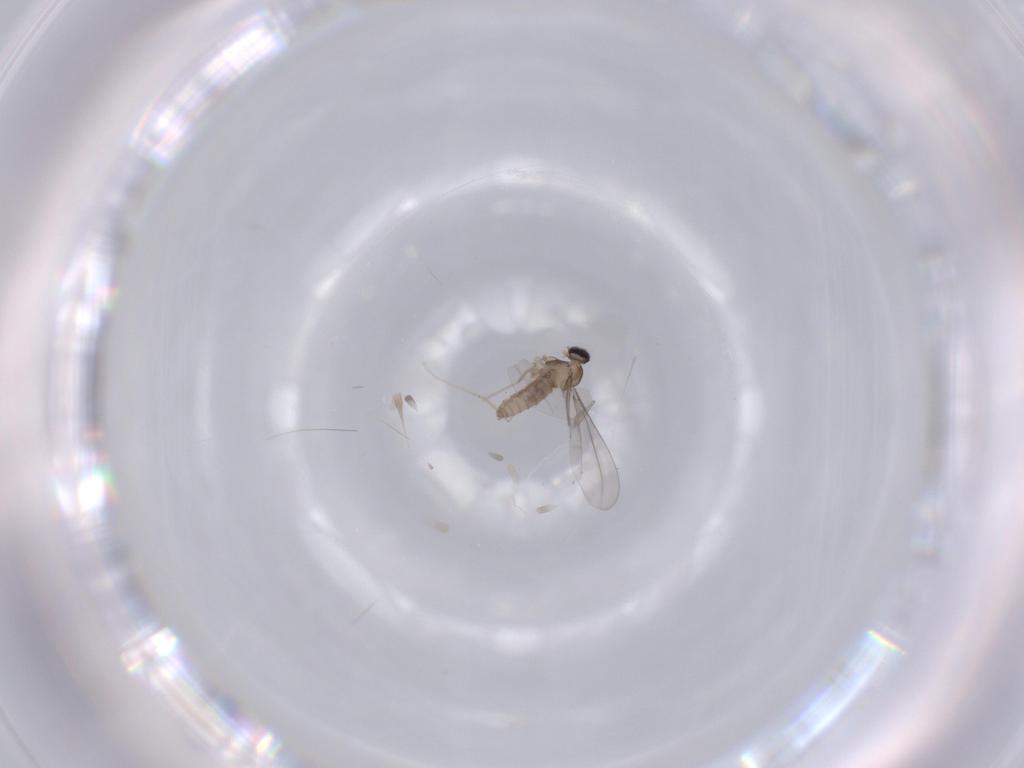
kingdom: Animalia
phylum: Arthropoda
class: Insecta
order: Diptera
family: Cecidomyiidae
